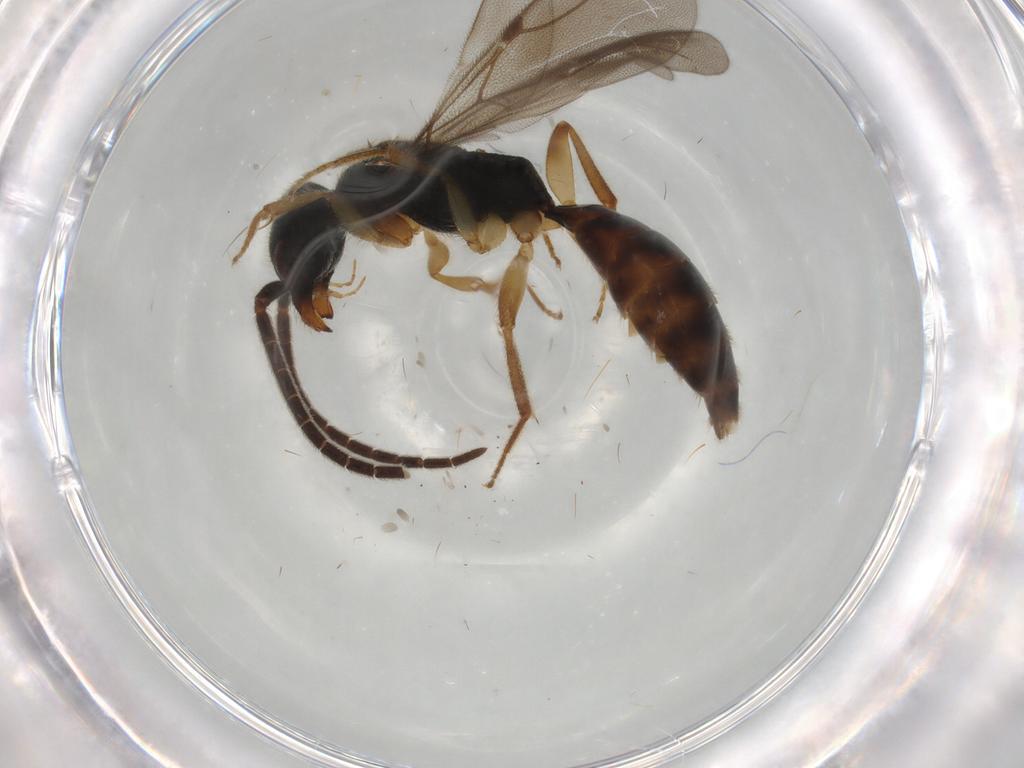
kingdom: Animalia
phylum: Arthropoda
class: Insecta
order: Hymenoptera
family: Bethylidae
